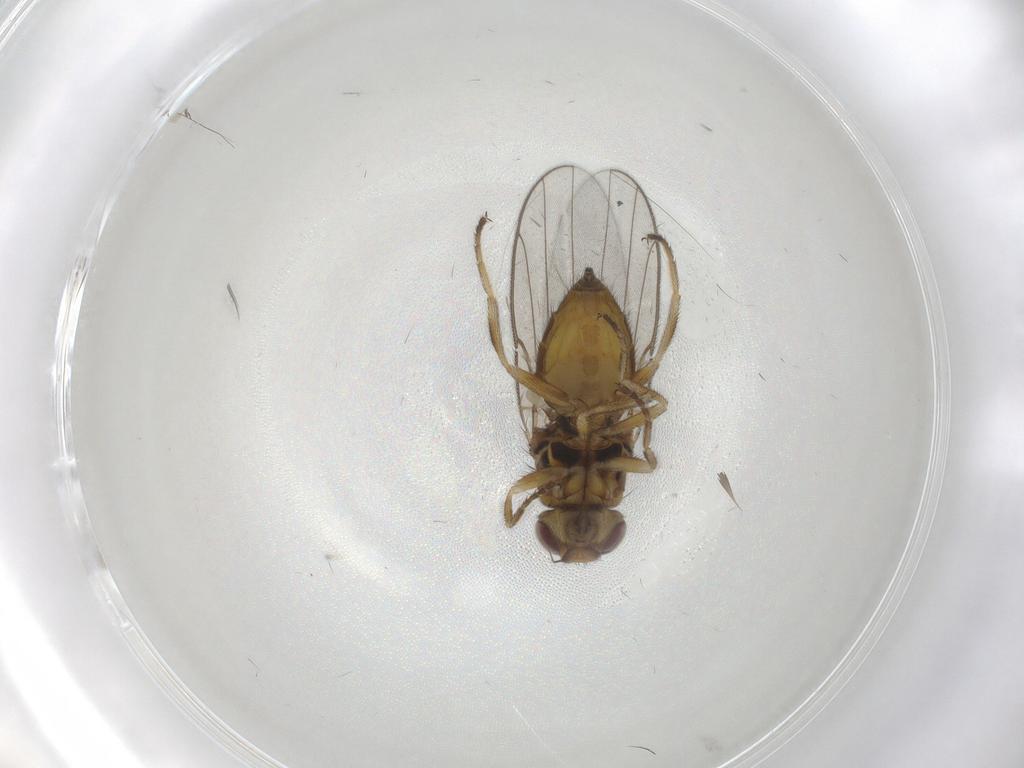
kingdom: Animalia
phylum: Arthropoda
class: Insecta
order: Diptera
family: Chloropidae
